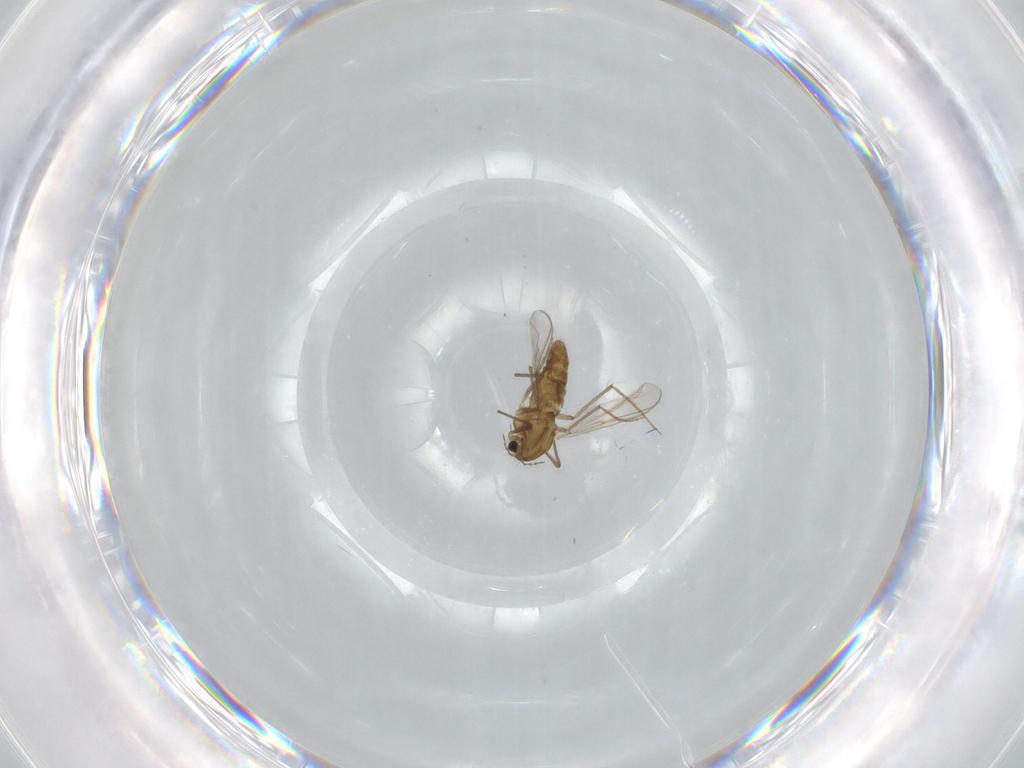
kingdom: Animalia
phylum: Arthropoda
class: Insecta
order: Diptera
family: Chironomidae
